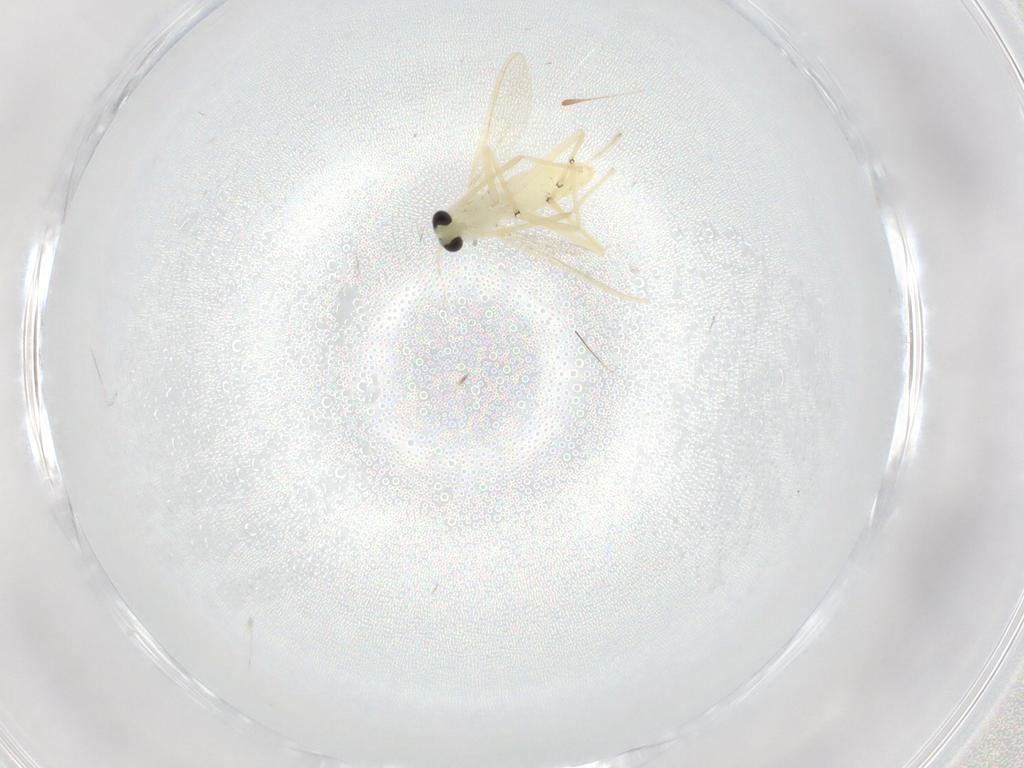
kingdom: Animalia
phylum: Arthropoda
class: Insecta
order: Diptera
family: Chironomidae
